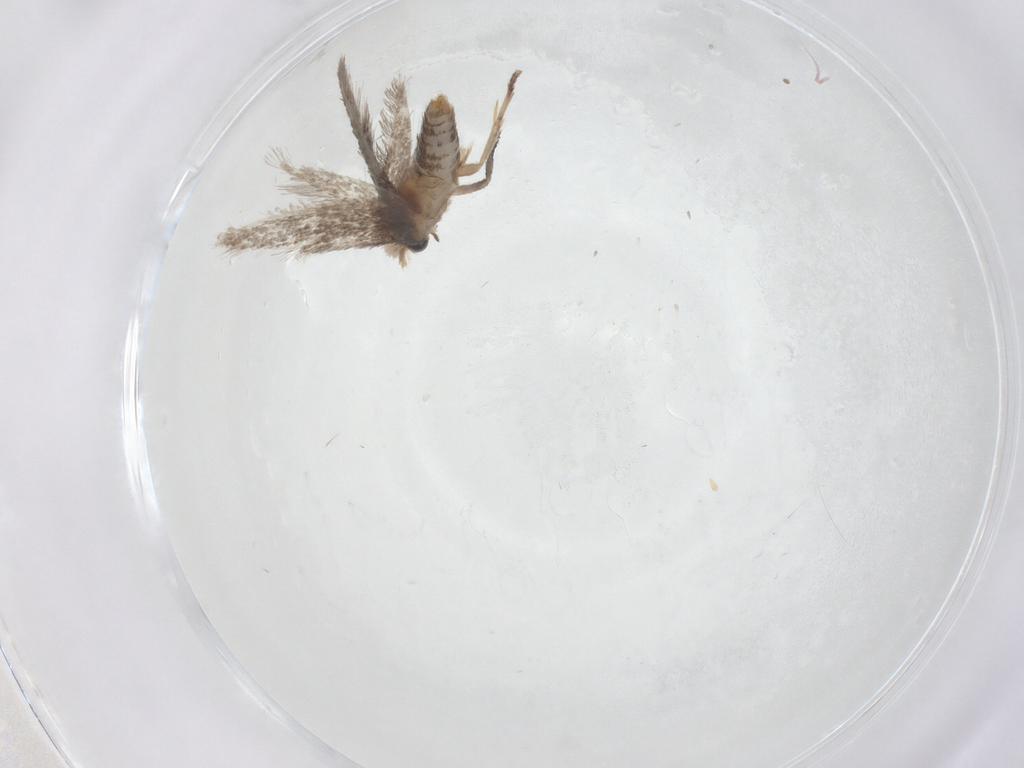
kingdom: Animalia
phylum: Arthropoda
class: Insecta
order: Lepidoptera
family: Nepticulidae
